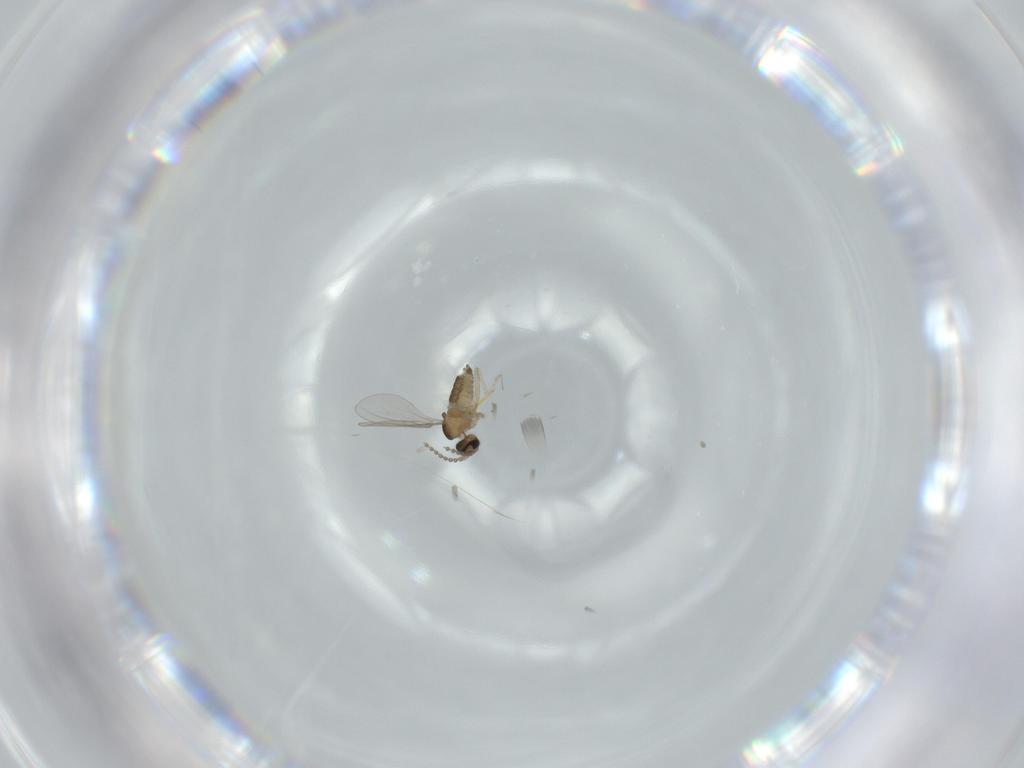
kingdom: Animalia
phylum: Arthropoda
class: Insecta
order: Diptera
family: Cecidomyiidae
